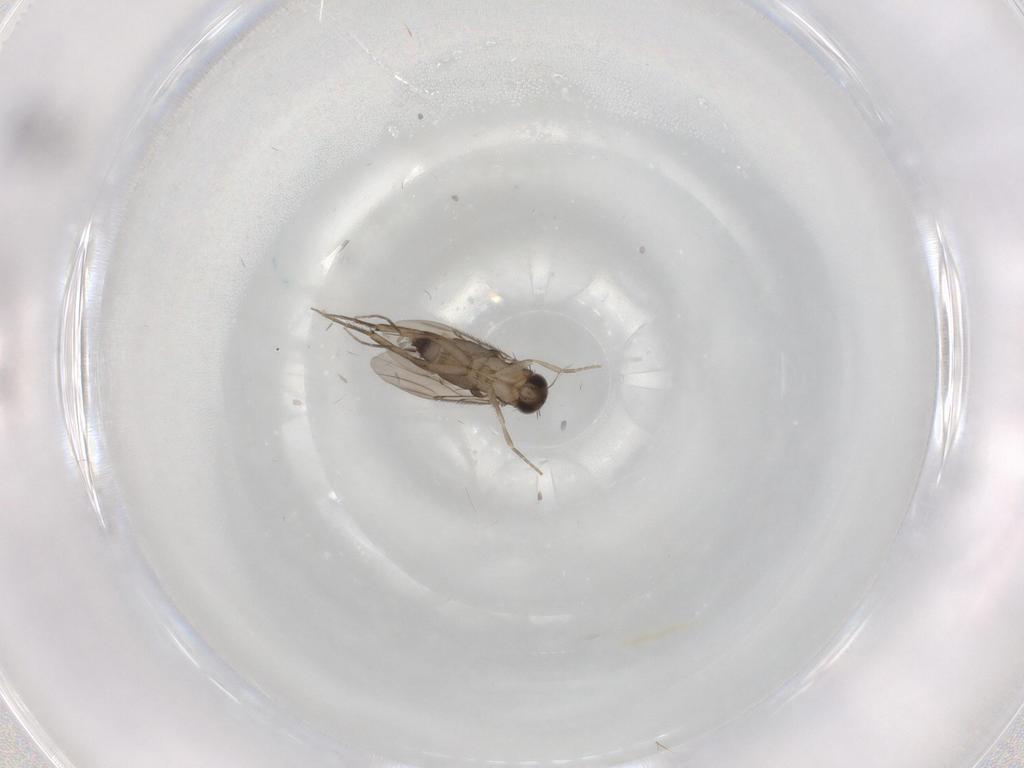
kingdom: Animalia
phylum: Arthropoda
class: Insecta
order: Diptera
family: Phoridae
